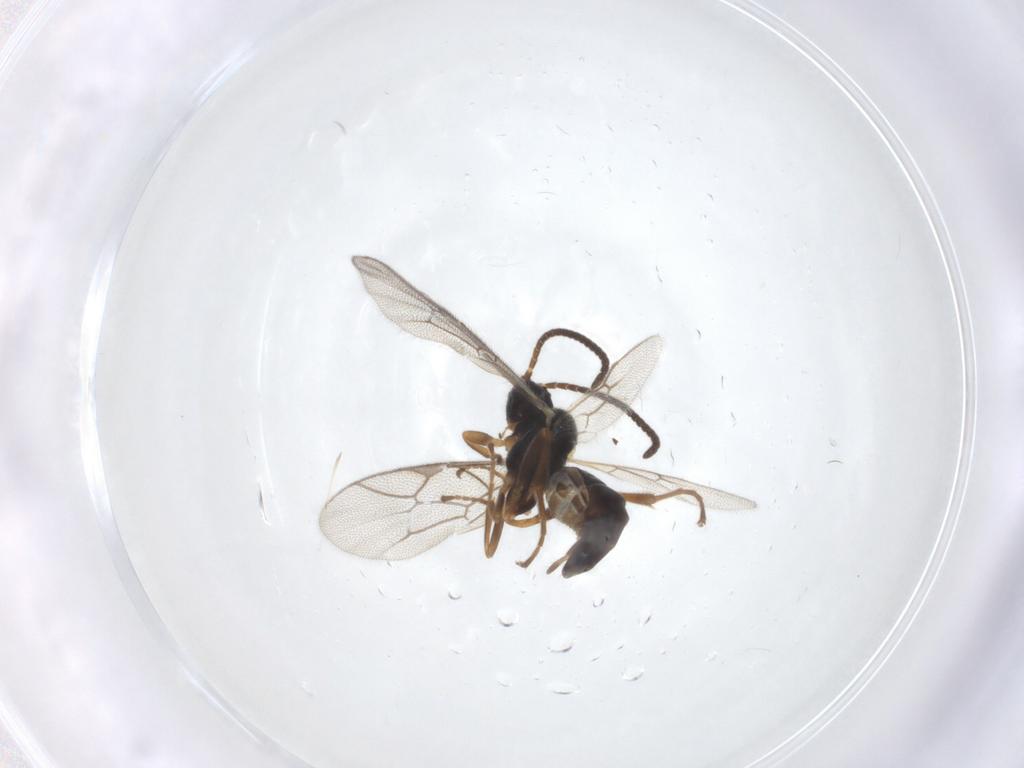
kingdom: Animalia
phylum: Arthropoda
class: Insecta
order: Hymenoptera
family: Ichneumonidae
